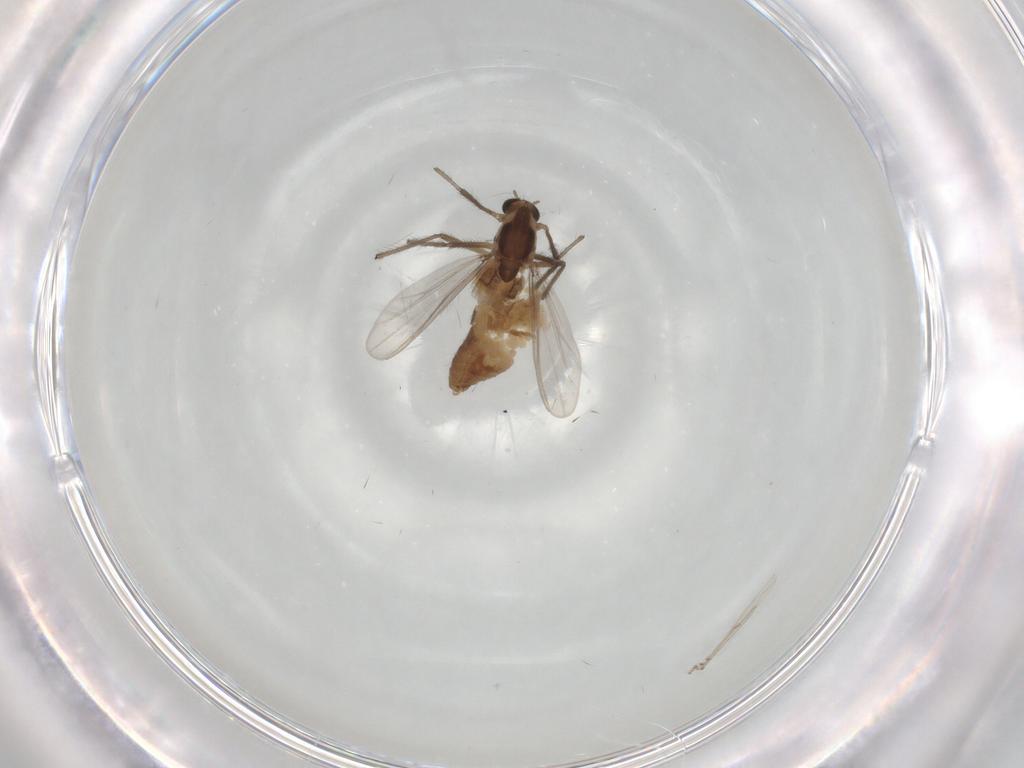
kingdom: Animalia
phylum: Arthropoda
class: Insecta
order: Diptera
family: Chironomidae
